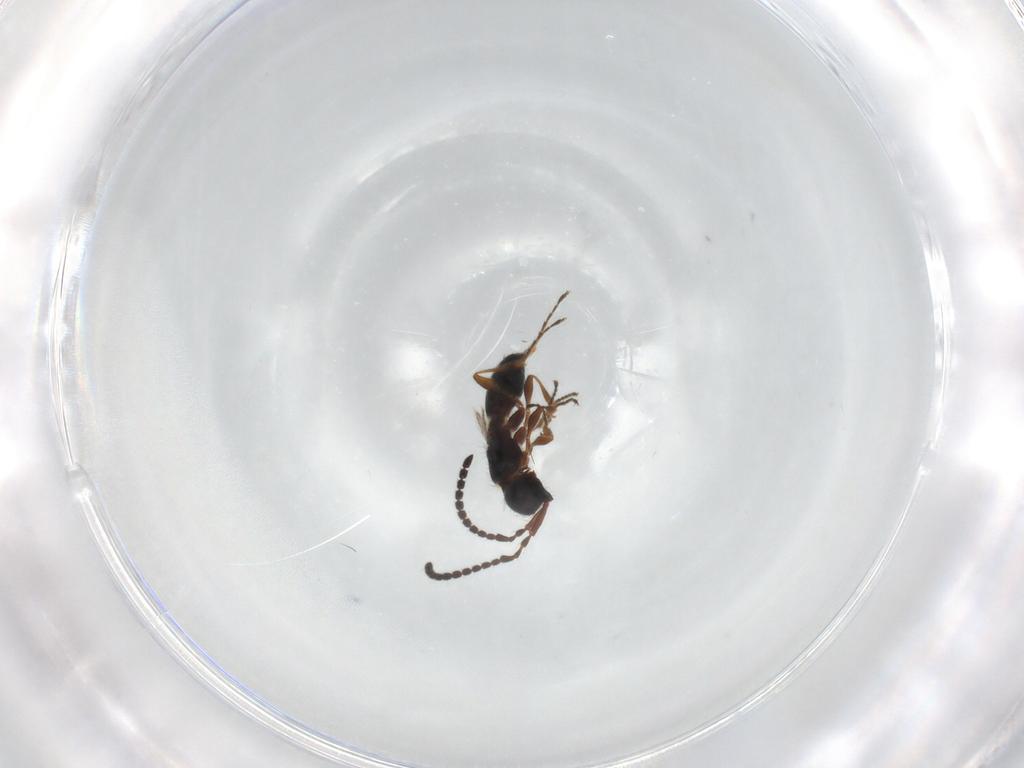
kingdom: Animalia
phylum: Arthropoda
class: Insecta
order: Hymenoptera
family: Diapriidae
